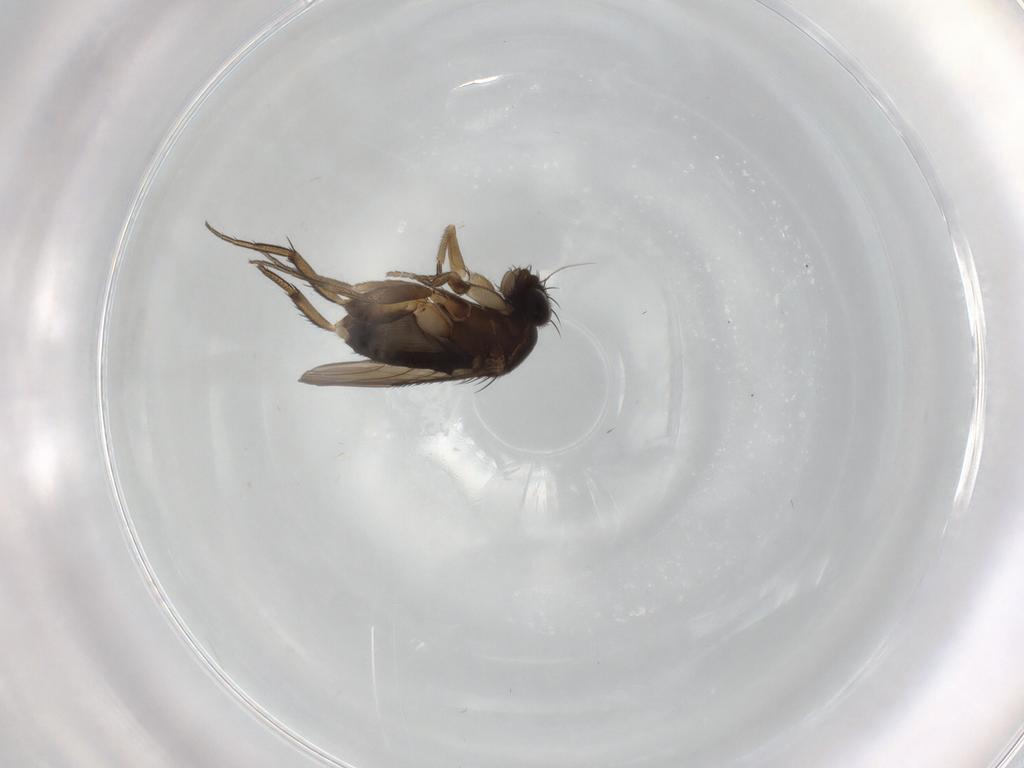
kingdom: Animalia
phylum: Arthropoda
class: Insecta
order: Diptera
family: Phoridae
